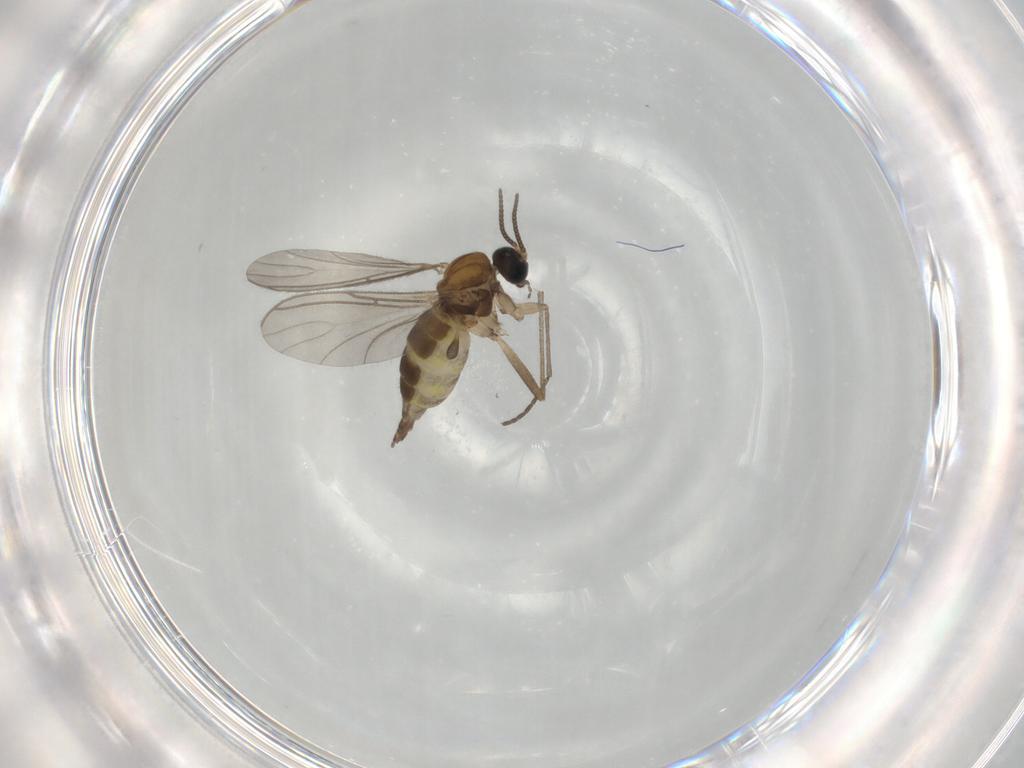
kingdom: Animalia
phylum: Arthropoda
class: Insecta
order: Diptera
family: Sciaridae
